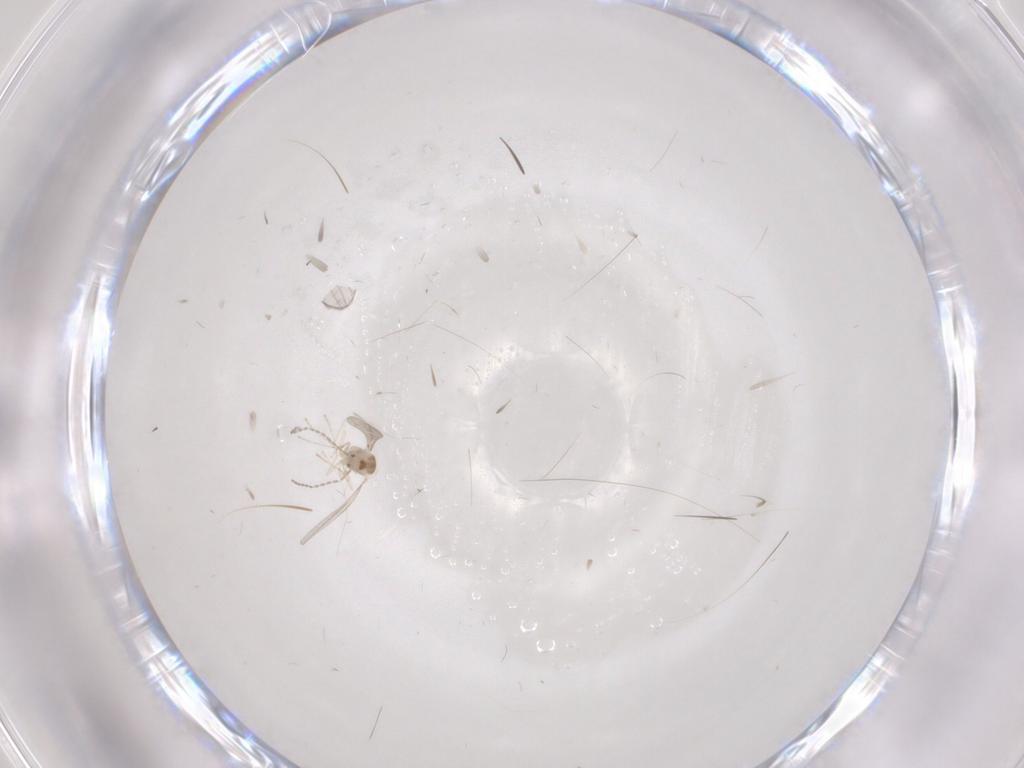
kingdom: Animalia
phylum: Arthropoda
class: Insecta
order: Diptera
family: Cecidomyiidae
